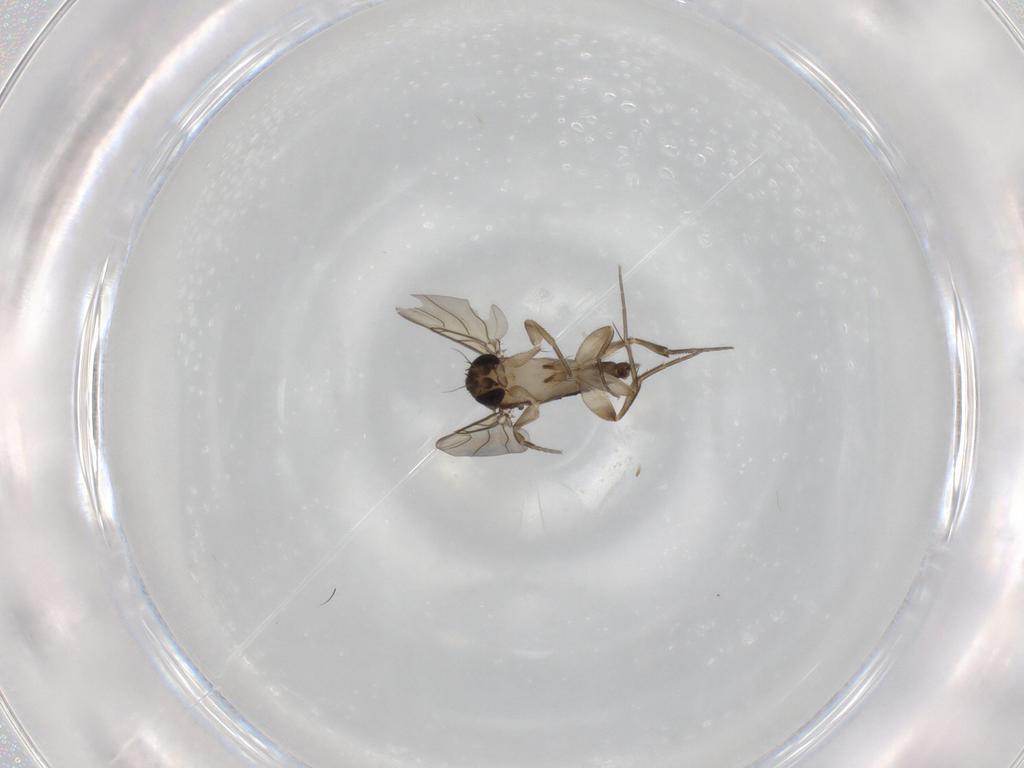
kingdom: Animalia
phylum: Arthropoda
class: Insecta
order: Diptera
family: Phoridae
